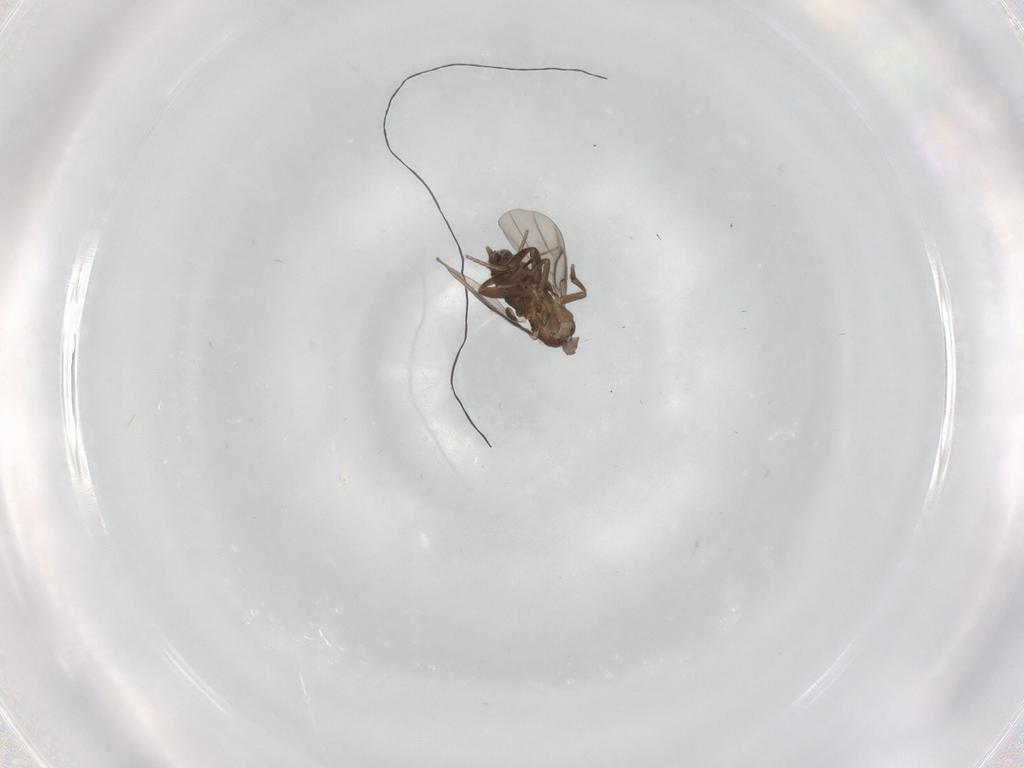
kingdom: Animalia
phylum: Arthropoda
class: Insecta
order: Diptera
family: Phoridae
